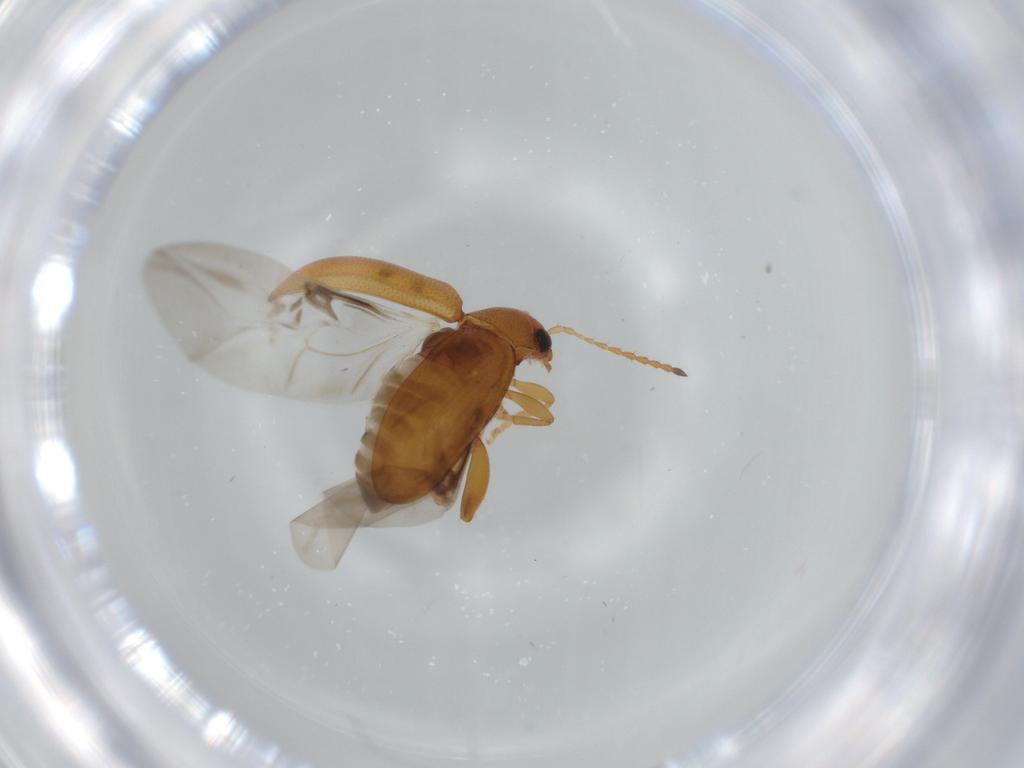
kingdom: Animalia
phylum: Arthropoda
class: Insecta
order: Coleoptera
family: Chrysomelidae
